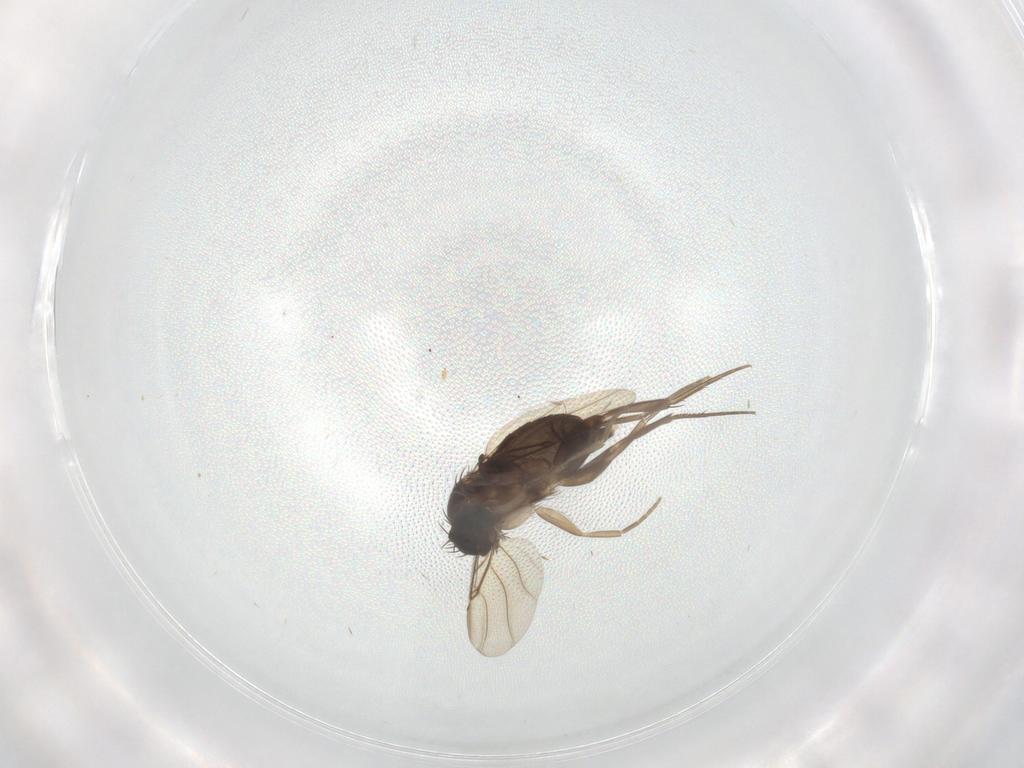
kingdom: Animalia
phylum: Arthropoda
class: Insecta
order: Diptera
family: Phoridae
